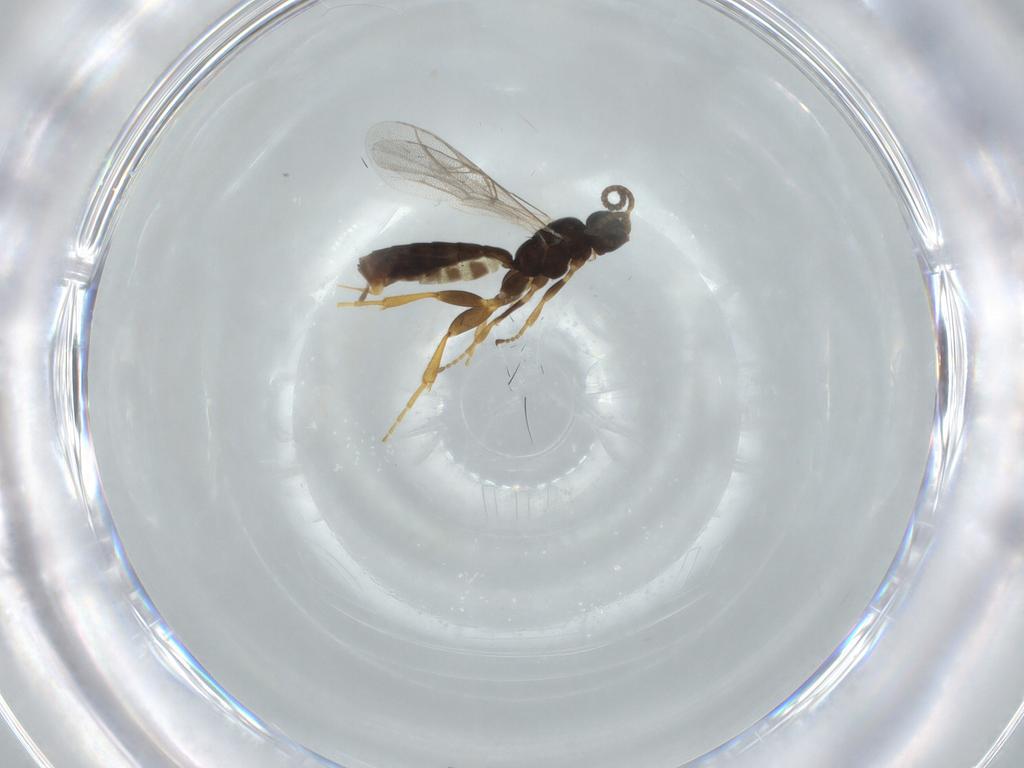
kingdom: Animalia
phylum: Arthropoda
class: Insecta
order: Hymenoptera
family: Ichneumonidae
